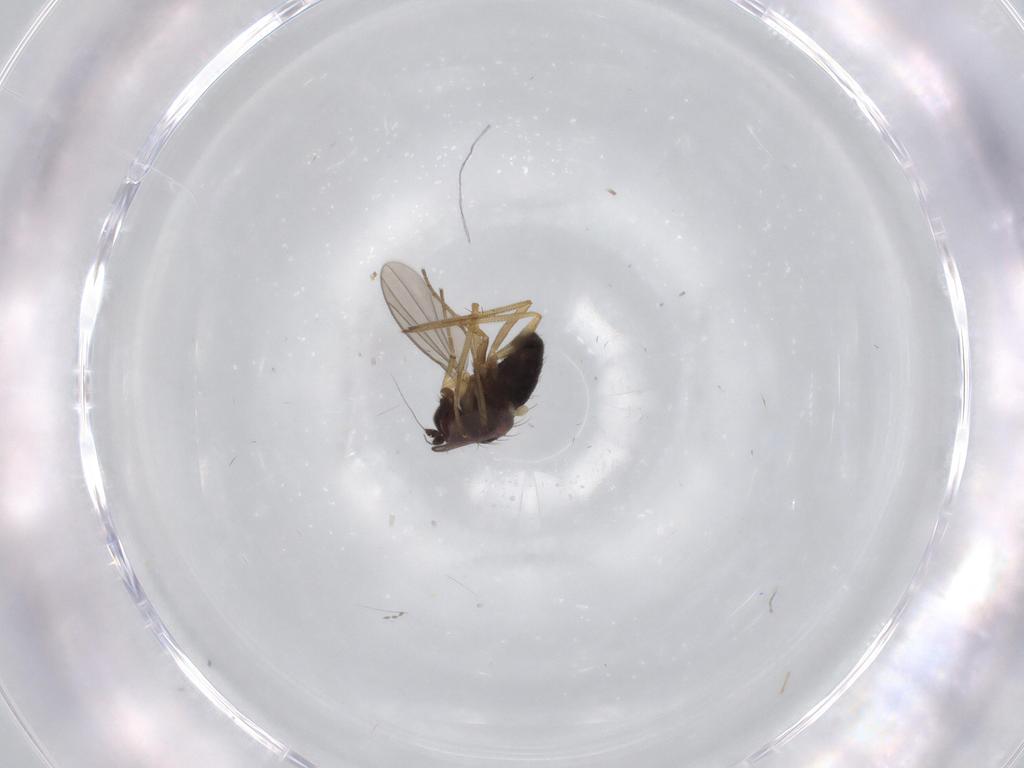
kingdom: Animalia
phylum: Arthropoda
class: Insecta
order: Diptera
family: Dolichopodidae
